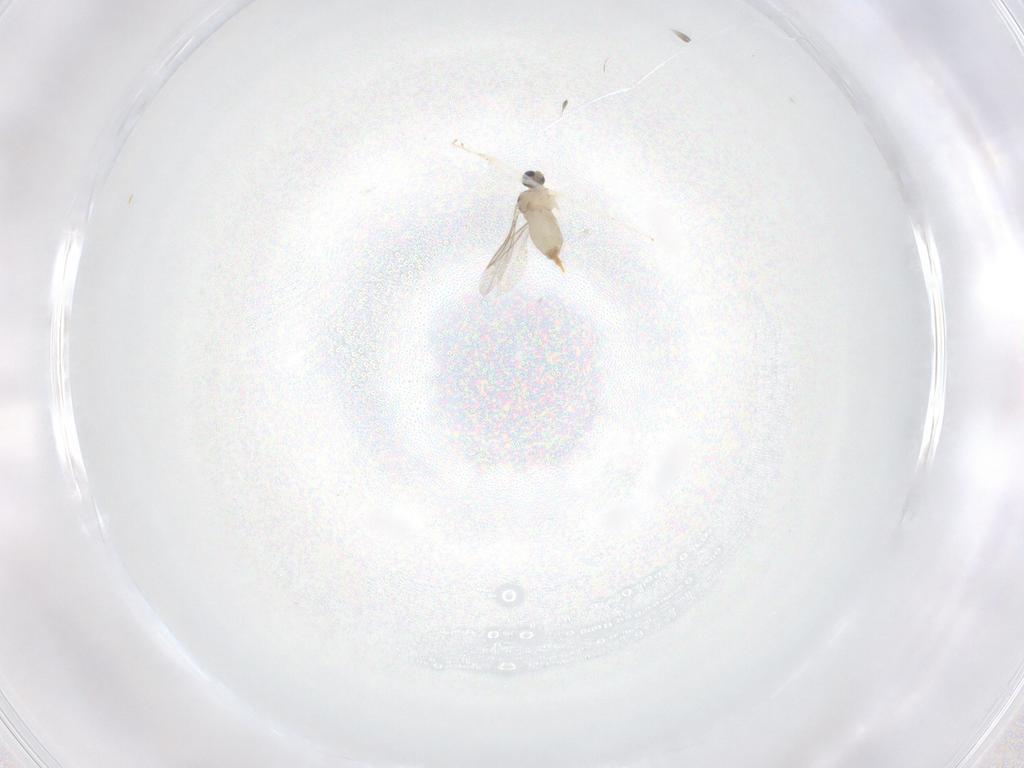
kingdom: Animalia
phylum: Arthropoda
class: Insecta
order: Diptera
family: Cecidomyiidae
